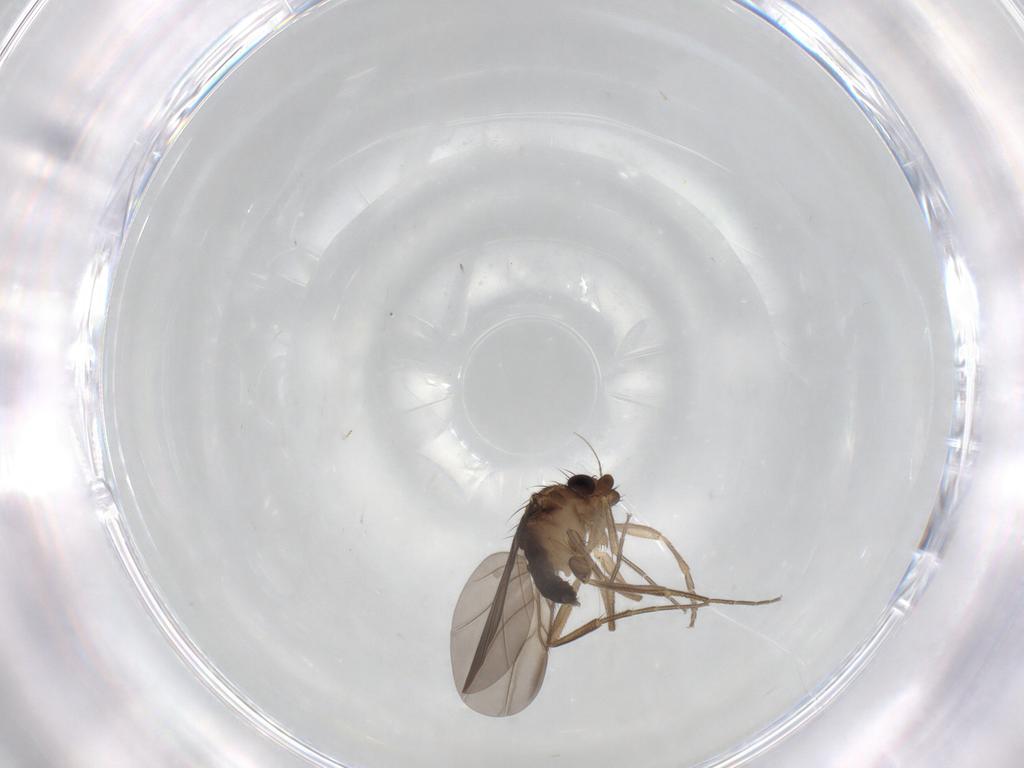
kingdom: Animalia
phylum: Arthropoda
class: Insecta
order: Diptera
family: Phoridae
